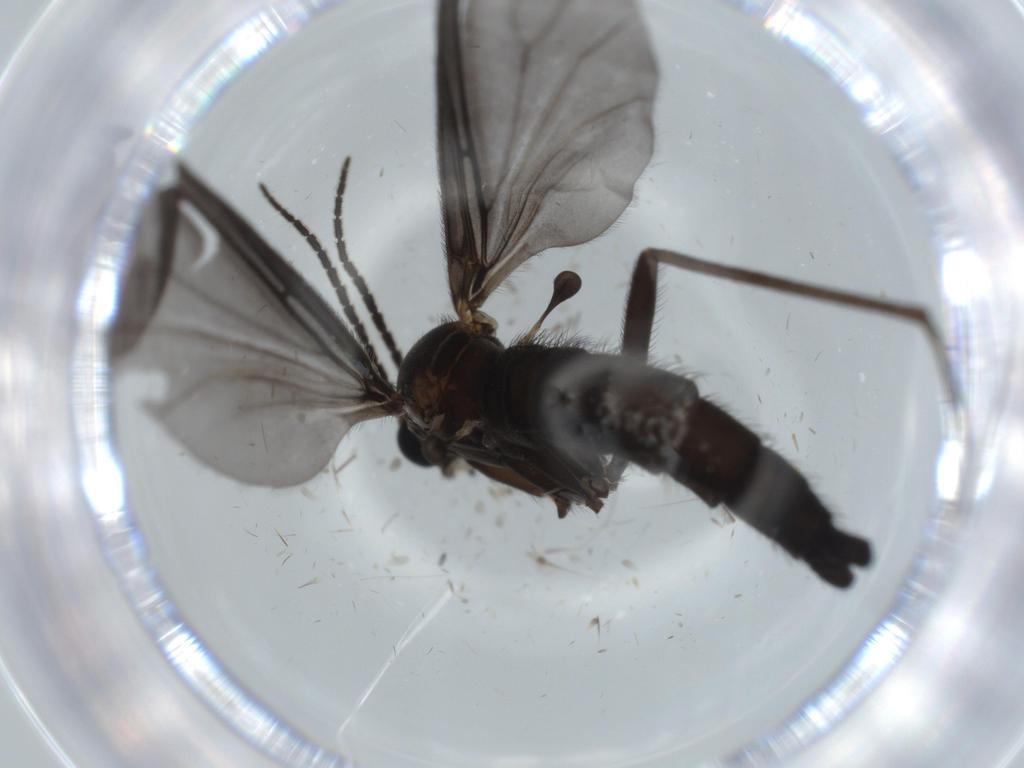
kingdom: Animalia
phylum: Arthropoda
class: Insecta
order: Diptera
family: Sciaridae
